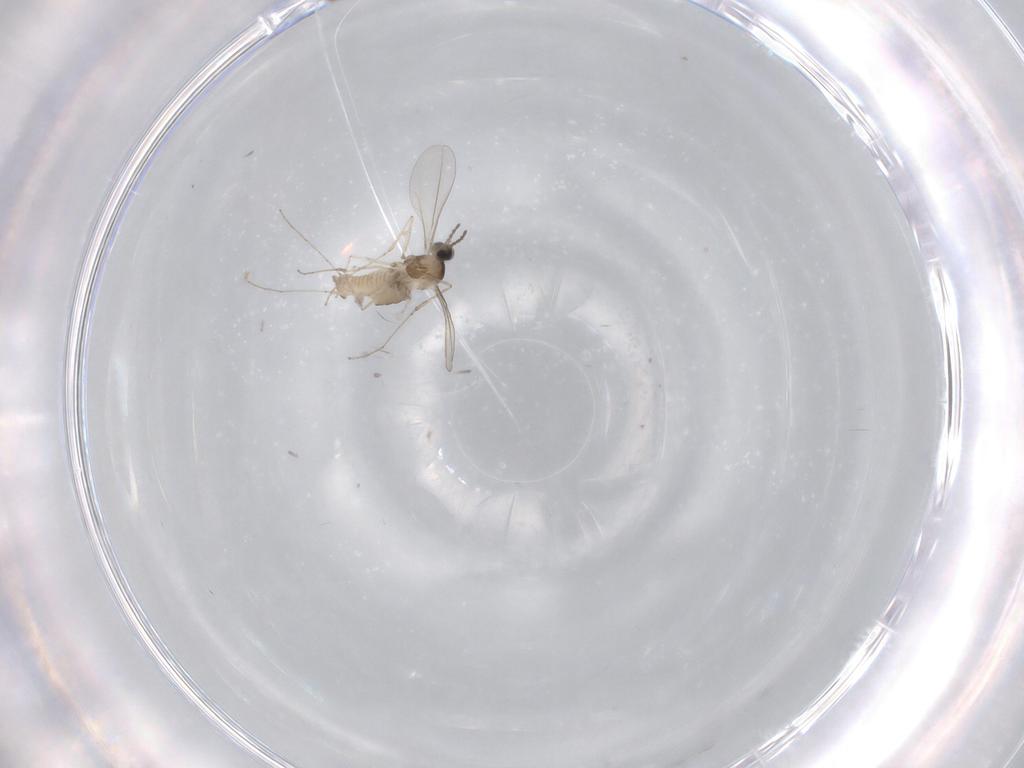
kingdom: Animalia
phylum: Arthropoda
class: Insecta
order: Diptera
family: Cecidomyiidae
